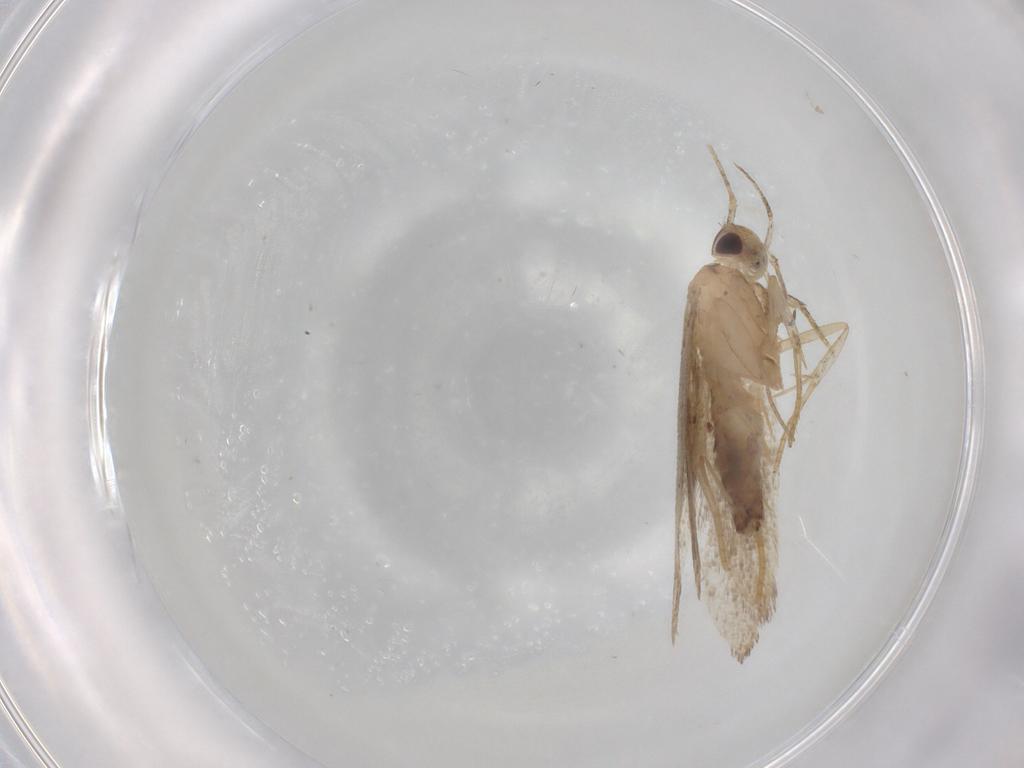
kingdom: Animalia
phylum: Arthropoda
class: Insecta
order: Lepidoptera
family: Cosmopterigidae
